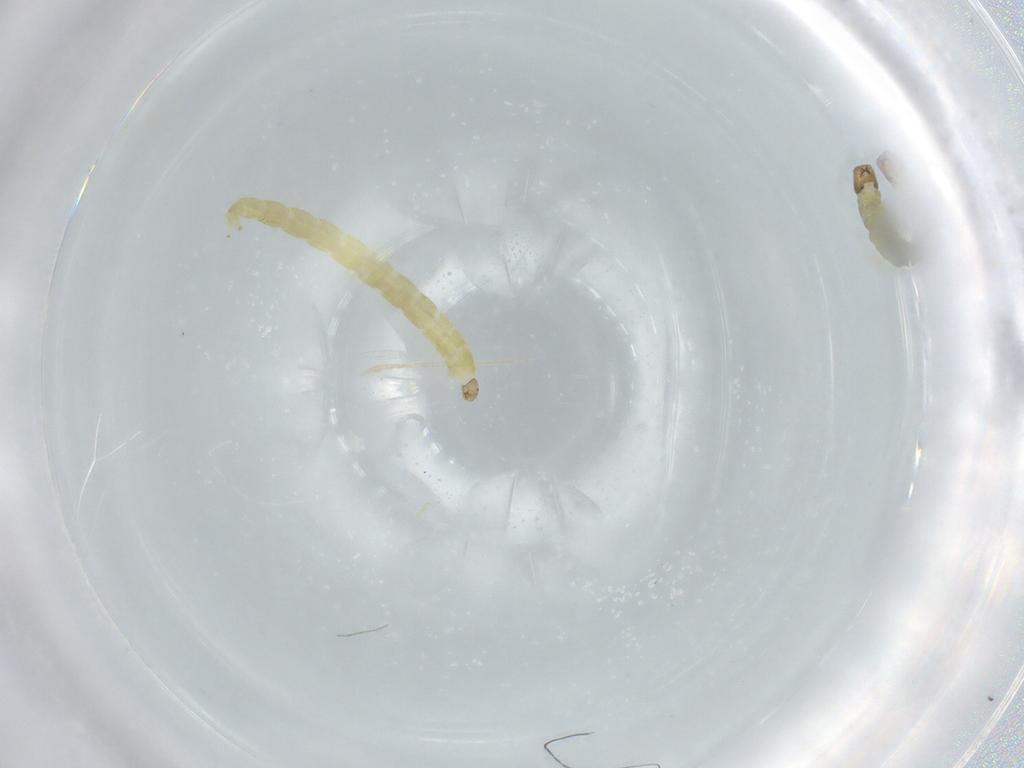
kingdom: Animalia
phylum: Arthropoda
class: Insecta
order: Diptera
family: Chironomidae
